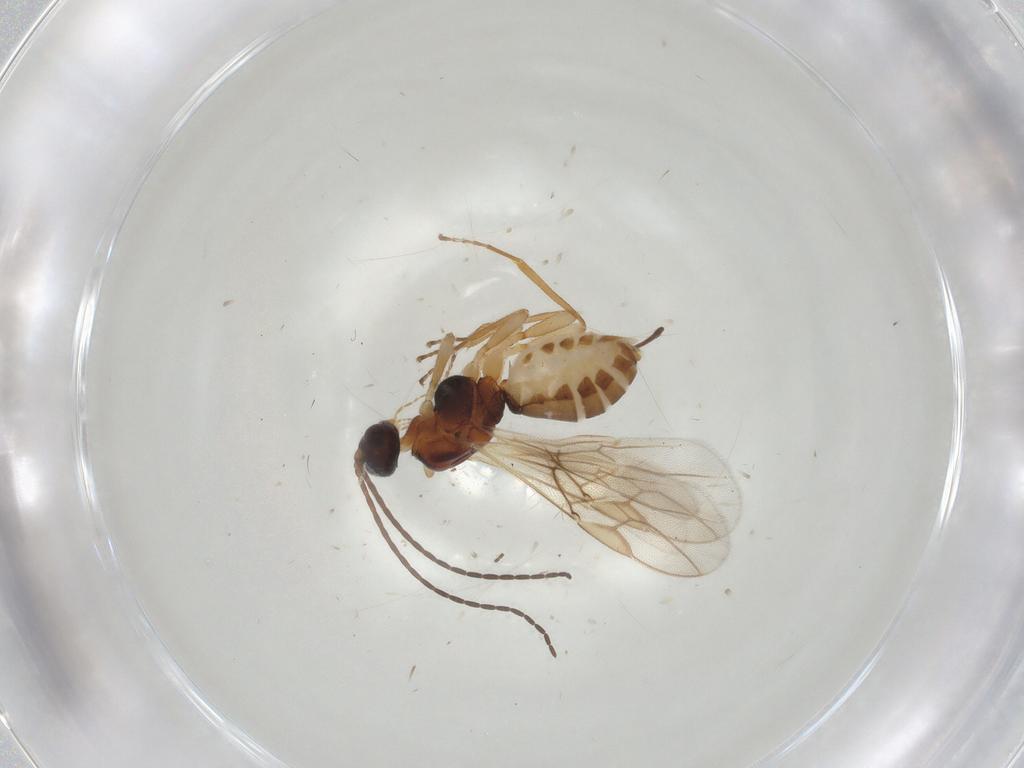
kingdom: Animalia
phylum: Arthropoda
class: Insecta
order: Hymenoptera
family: Braconidae
